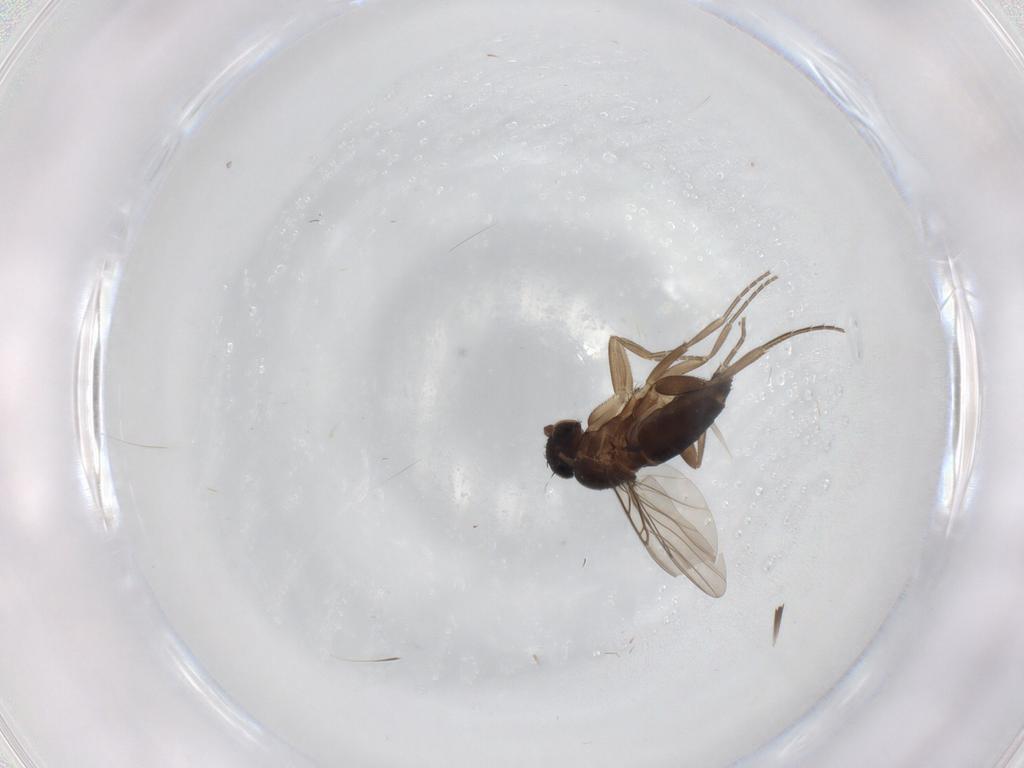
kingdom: Animalia
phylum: Arthropoda
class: Insecta
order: Diptera
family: Phoridae
